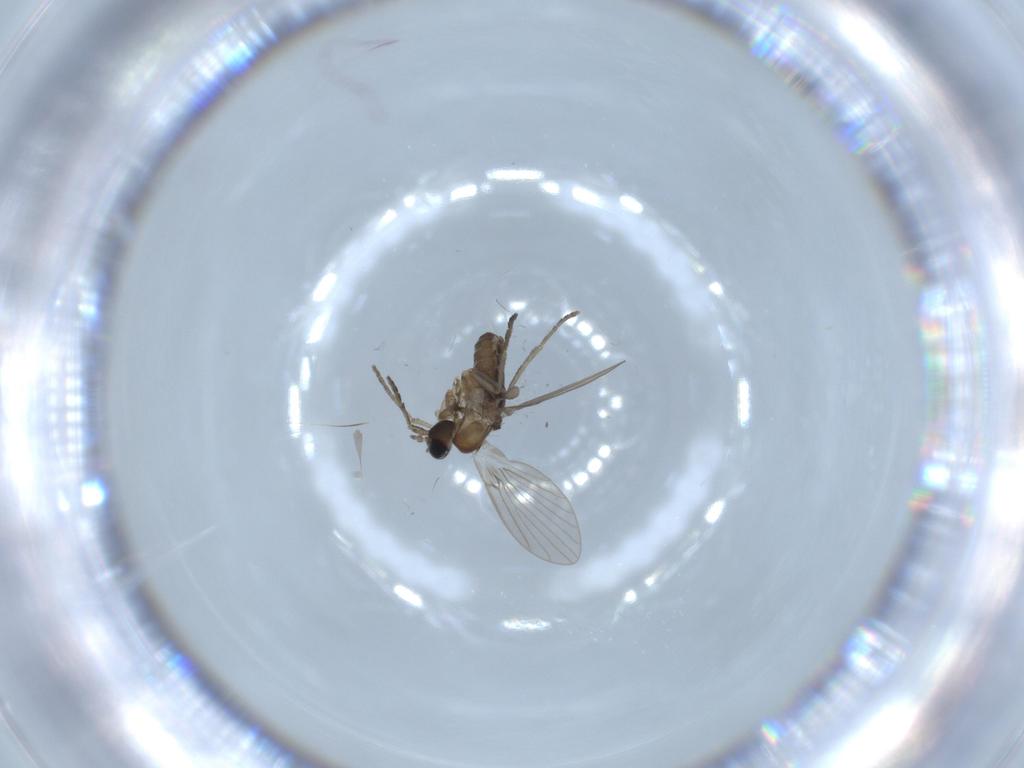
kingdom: Animalia
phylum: Arthropoda
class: Insecta
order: Diptera
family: Psychodidae
